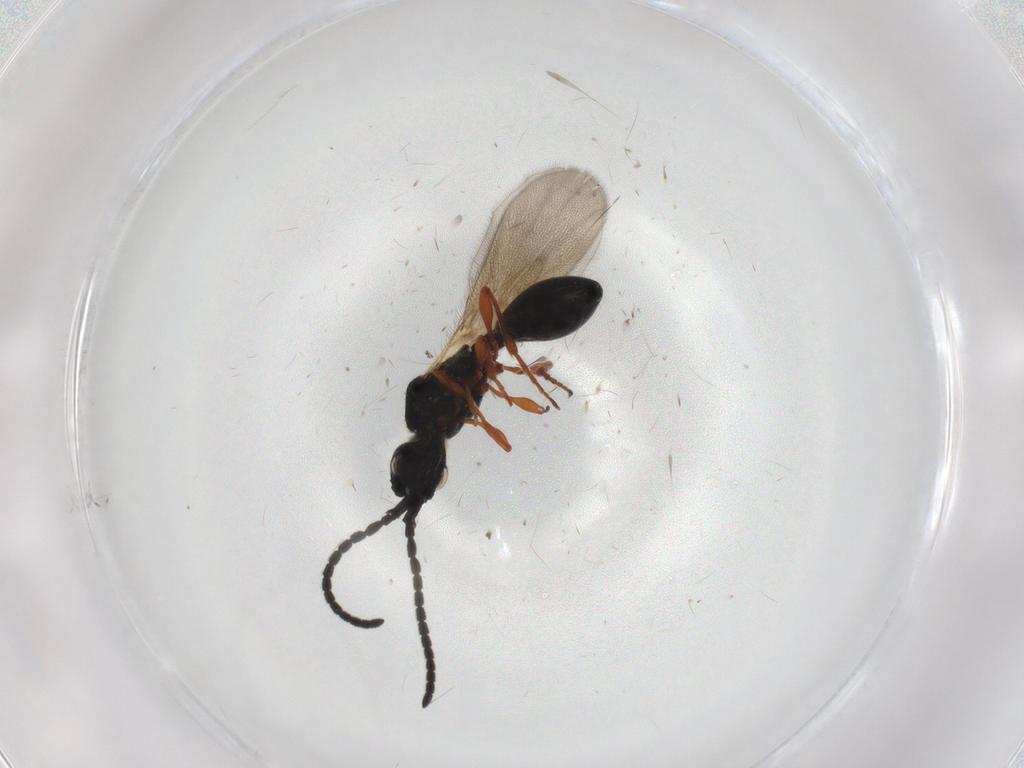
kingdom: Animalia
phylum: Arthropoda
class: Insecta
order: Hymenoptera
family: Diapriidae
